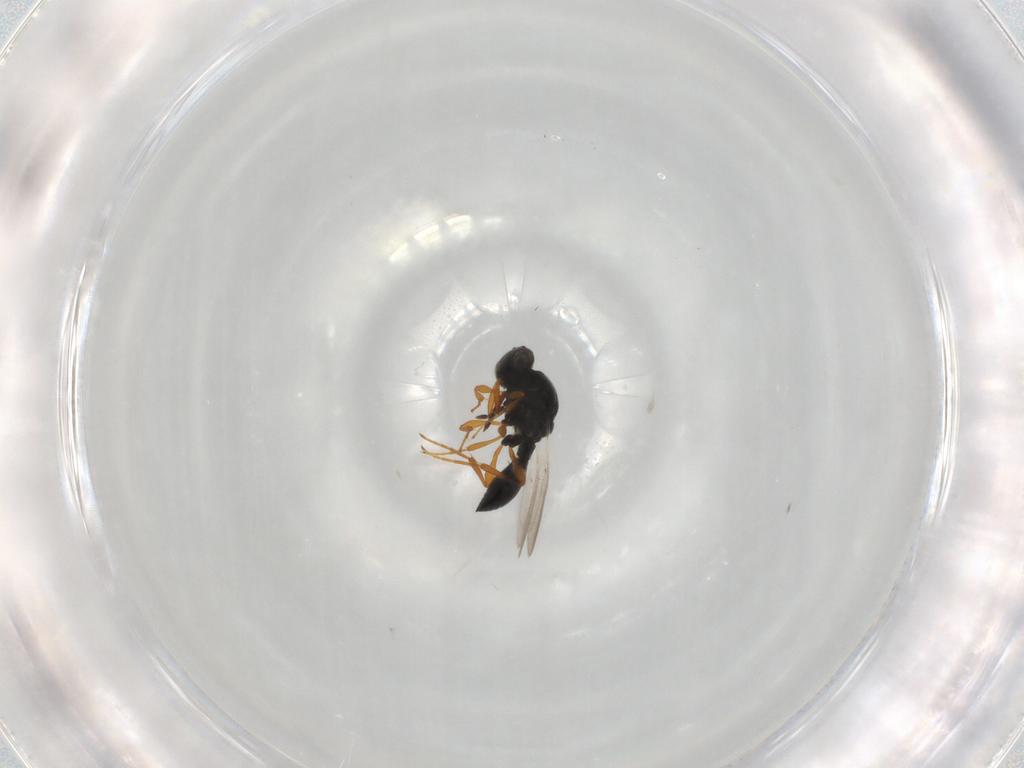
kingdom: Animalia
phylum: Arthropoda
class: Insecta
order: Hymenoptera
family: Platygastridae
